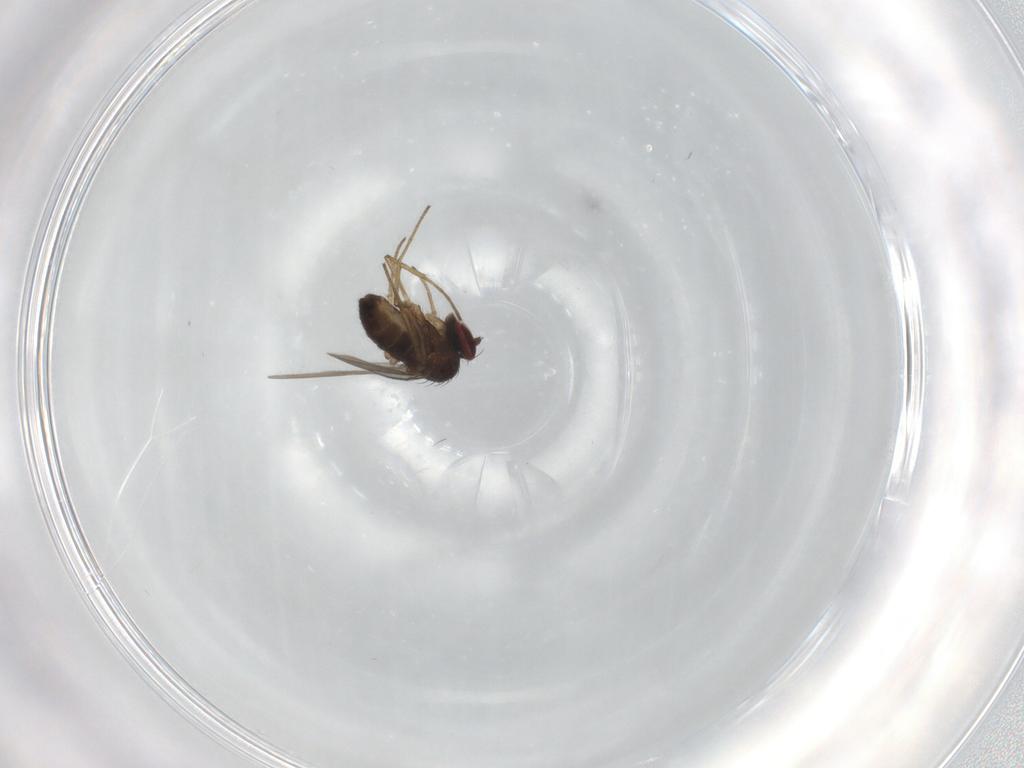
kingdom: Animalia
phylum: Arthropoda
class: Insecta
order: Diptera
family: Dolichopodidae
